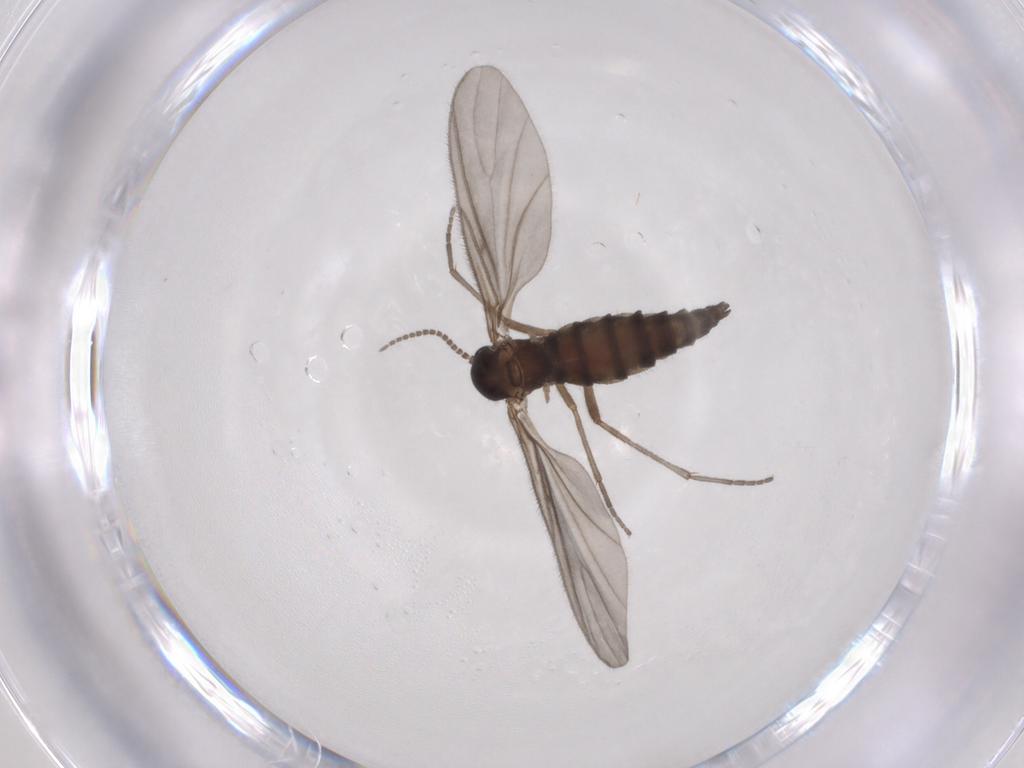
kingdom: Animalia
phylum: Arthropoda
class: Insecta
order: Diptera
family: Sciaridae
